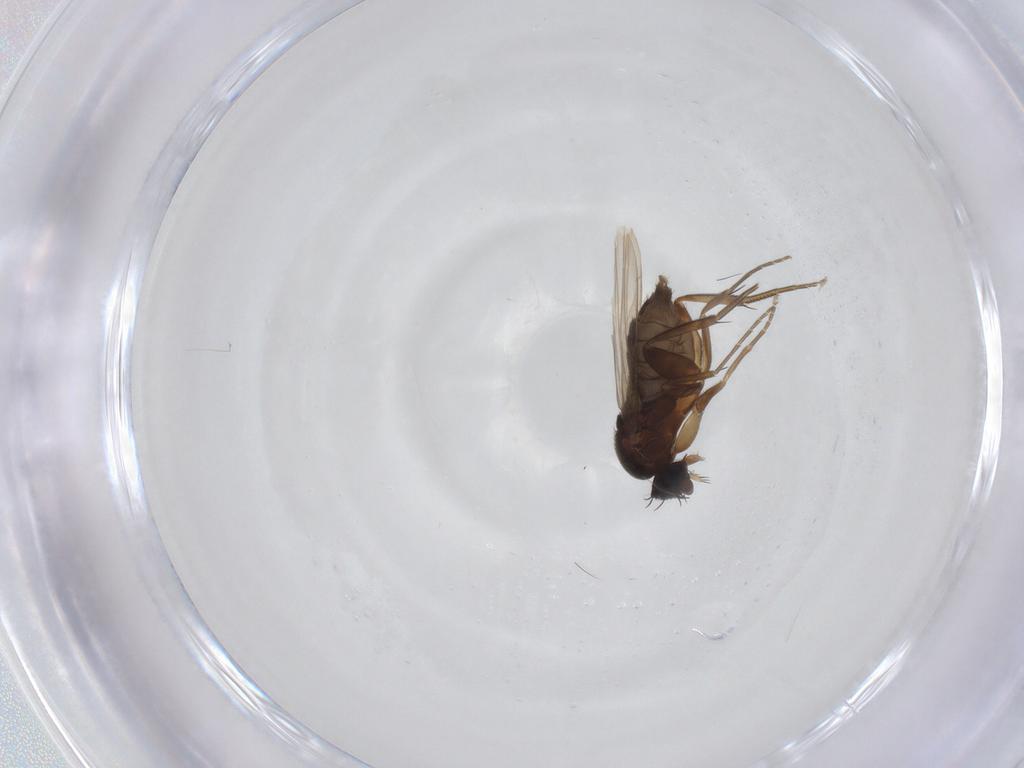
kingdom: Animalia
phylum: Arthropoda
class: Insecta
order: Diptera
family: Phoridae
